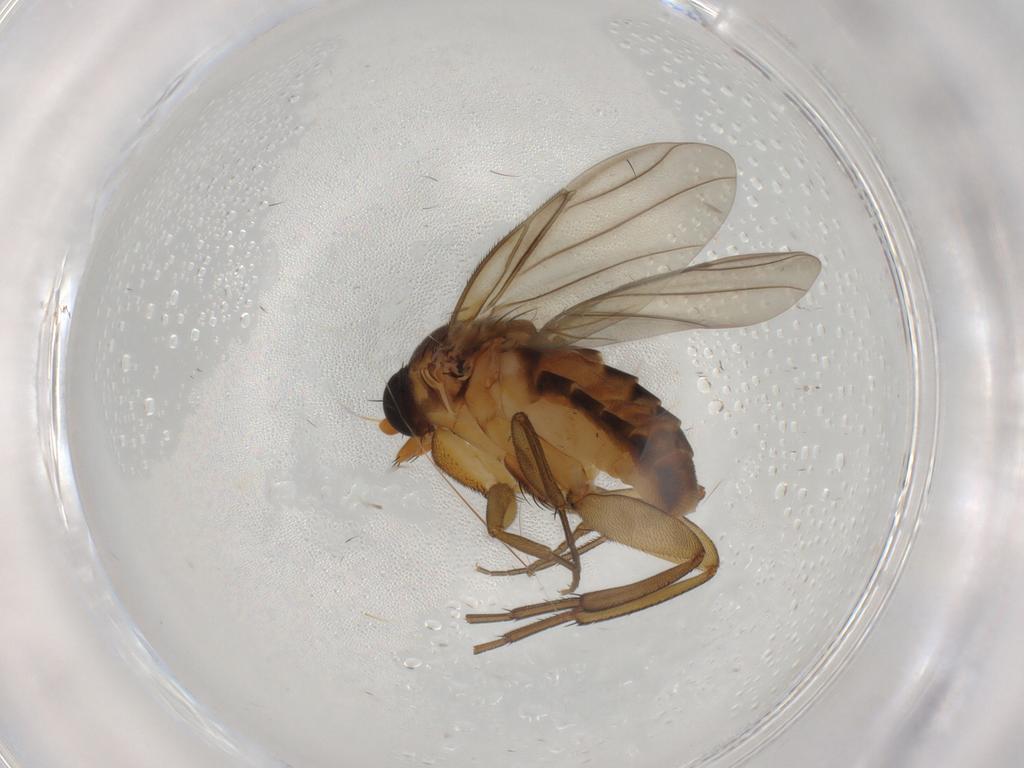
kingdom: Animalia
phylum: Arthropoda
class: Insecta
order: Diptera
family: Phoridae
